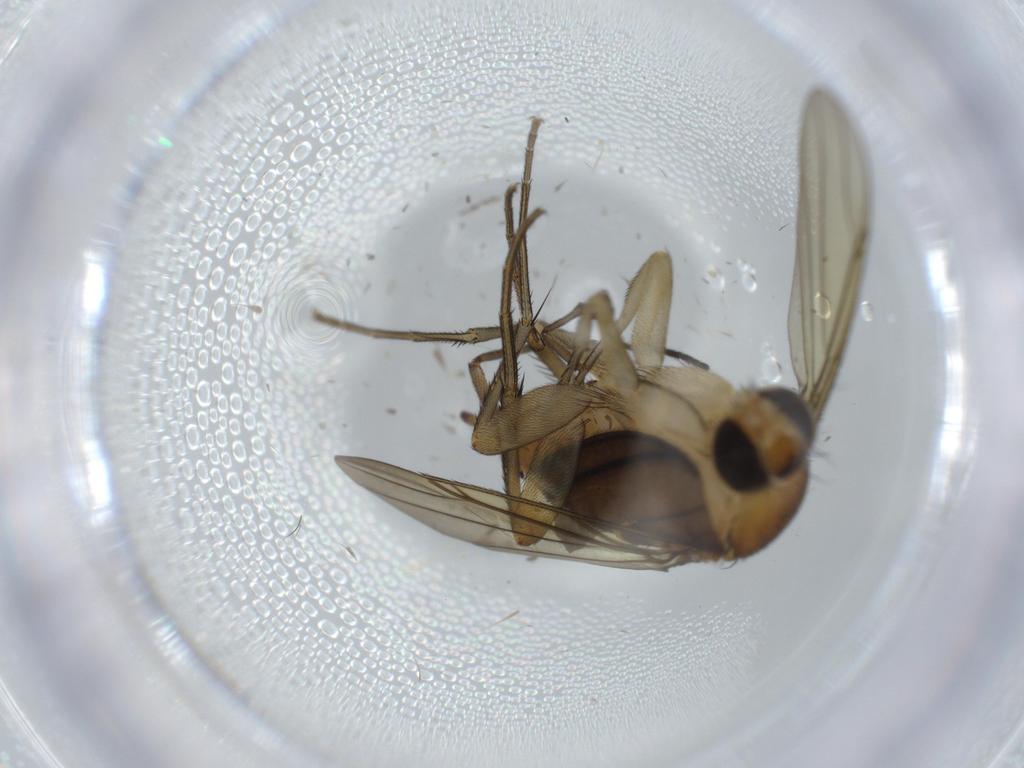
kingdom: Animalia
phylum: Arthropoda
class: Insecta
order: Diptera
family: Sciaridae
